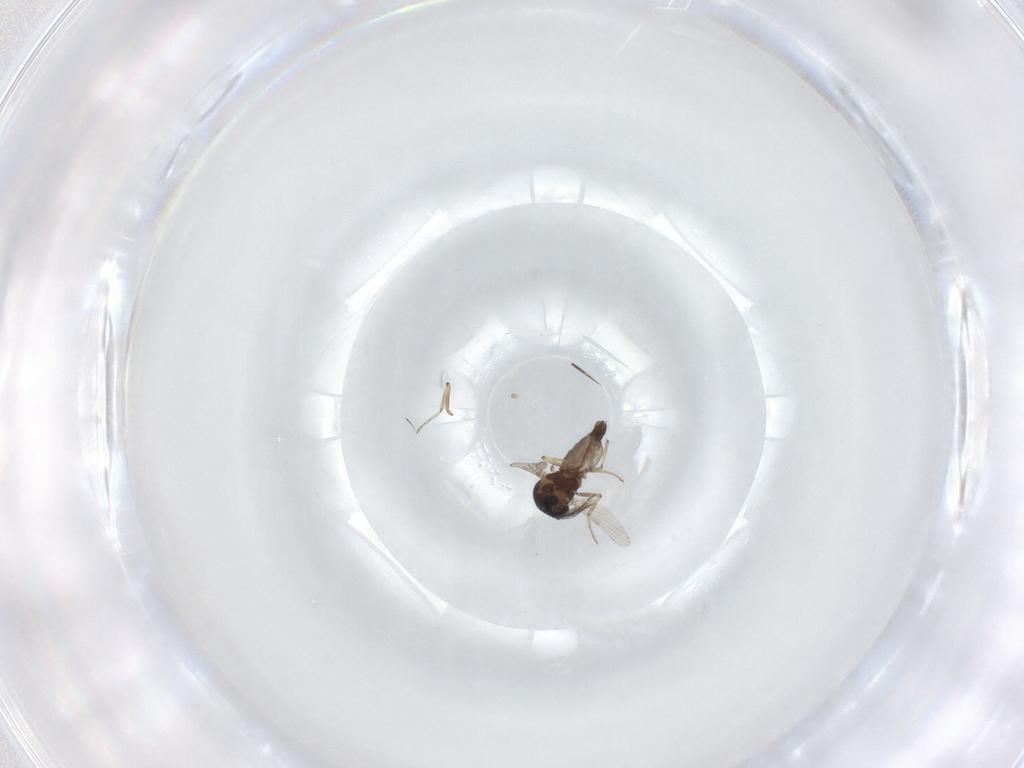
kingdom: Animalia
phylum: Arthropoda
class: Insecta
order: Diptera
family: Ceratopogonidae
